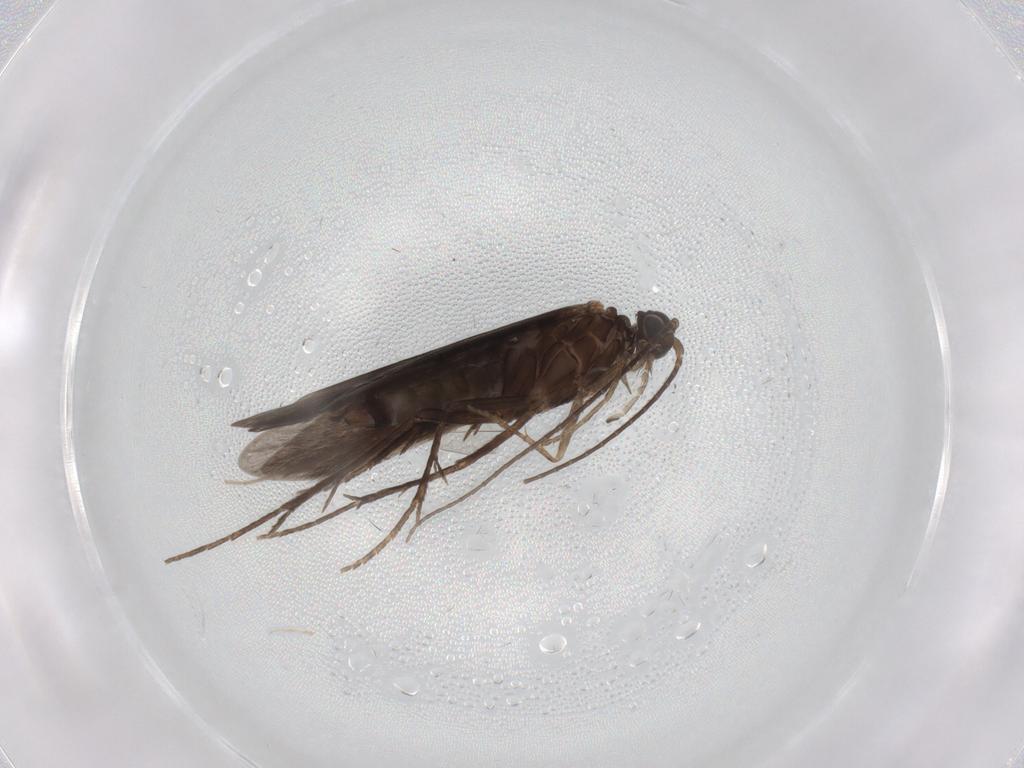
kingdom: Animalia
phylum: Arthropoda
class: Insecta
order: Trichoptera
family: Xiphocentronidae
